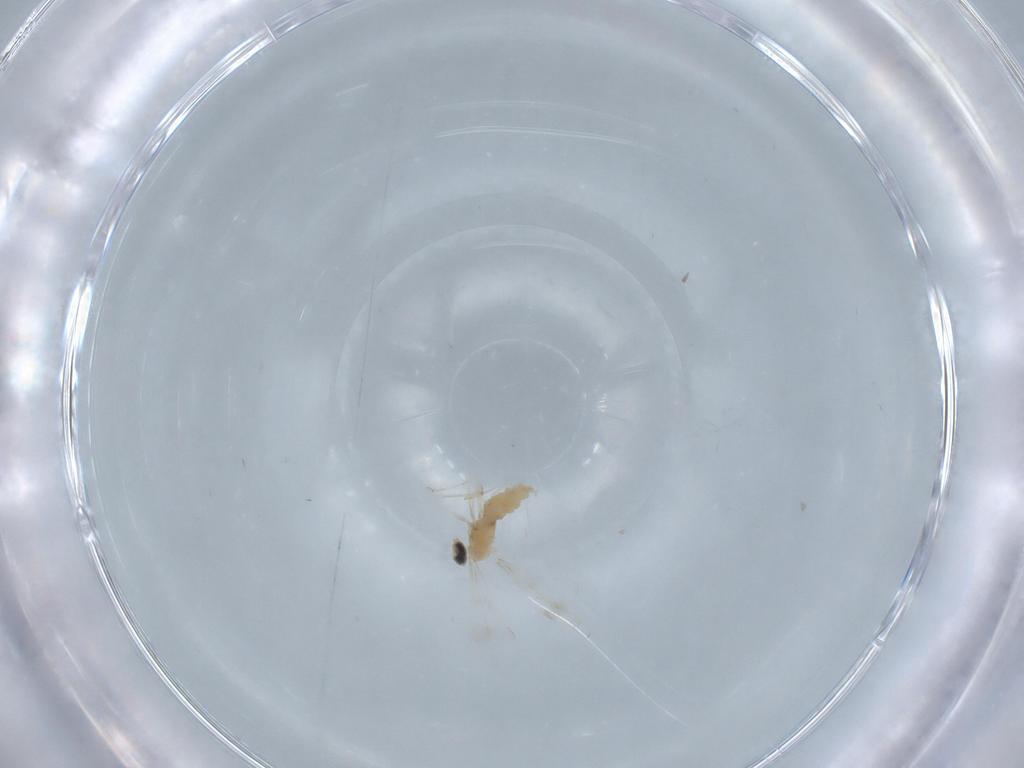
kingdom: Animalia
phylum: Arthropoda
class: Insecta
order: Diptera
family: Cecidomyiidae
